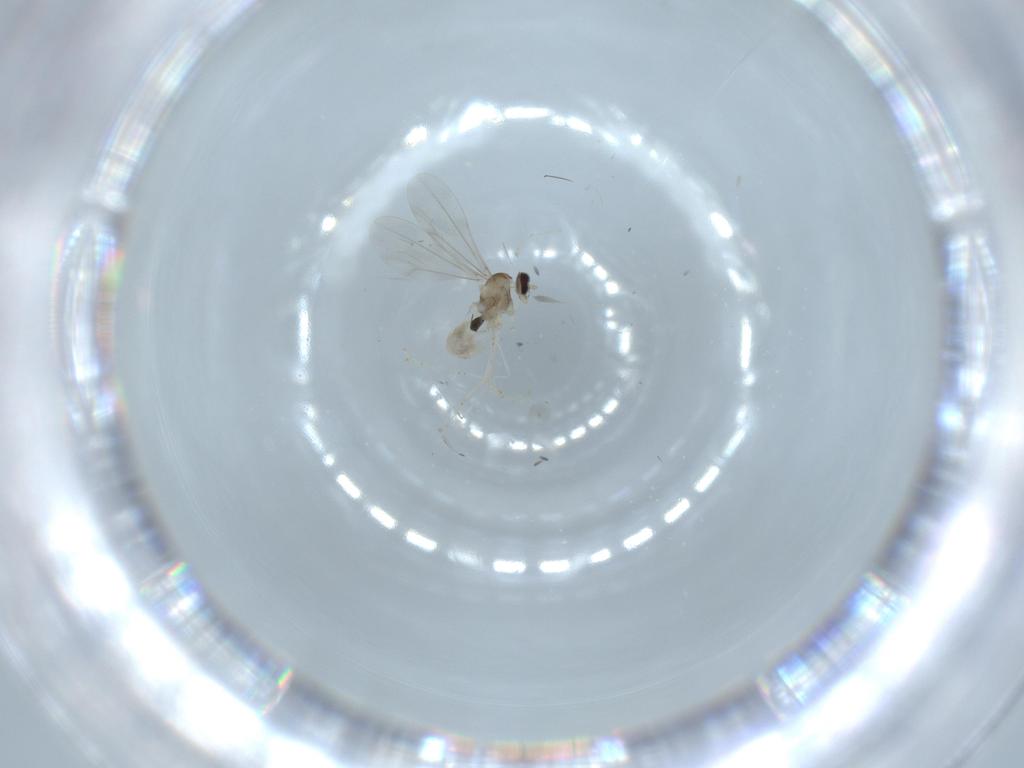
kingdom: Animalia
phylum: Arthropoda
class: Insecta
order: Diptera
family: Cecidomyiidae
